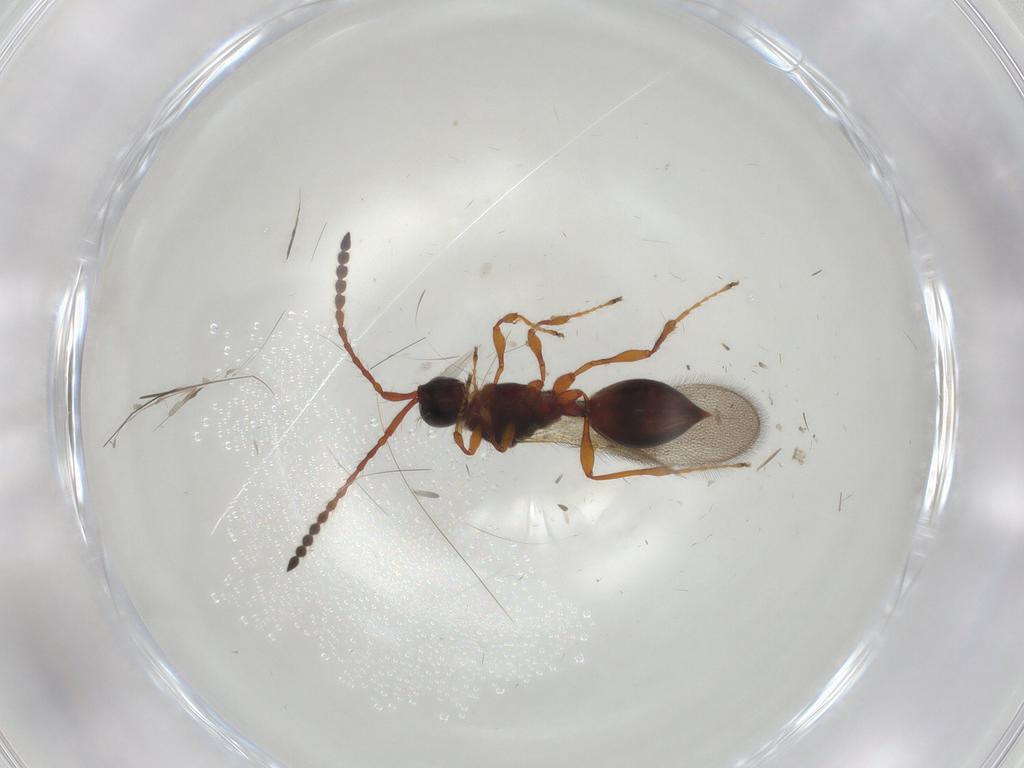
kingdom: Animalia
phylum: Arthropoda
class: Insecta
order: Hymenoptera
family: Diapriidae
